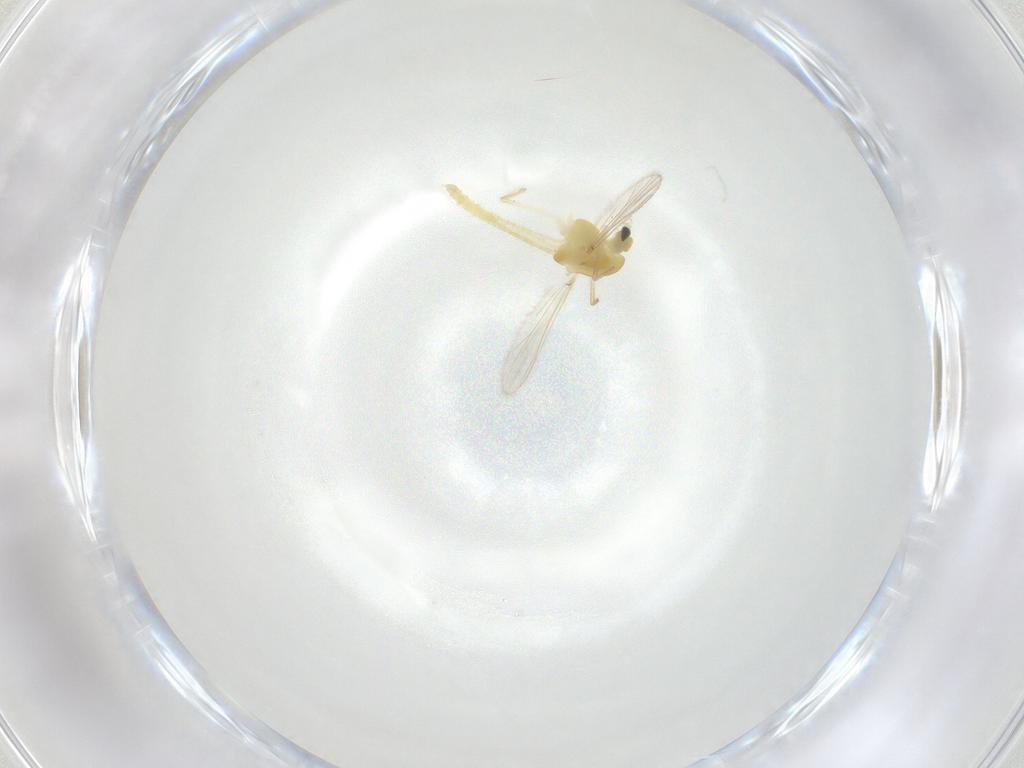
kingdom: Animalia
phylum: Arthropoda
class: Insecta
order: Diptera
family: Chironomidae
